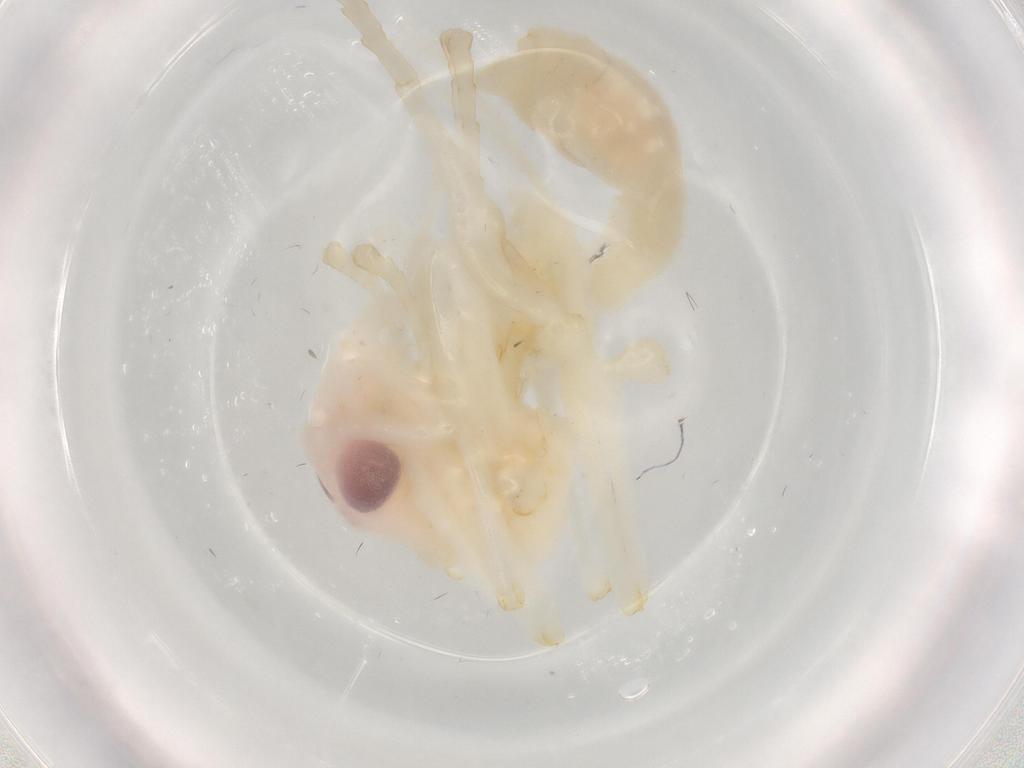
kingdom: Animalia
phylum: Arthropoda
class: Insecta
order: Hymenoptera
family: Formicidae
